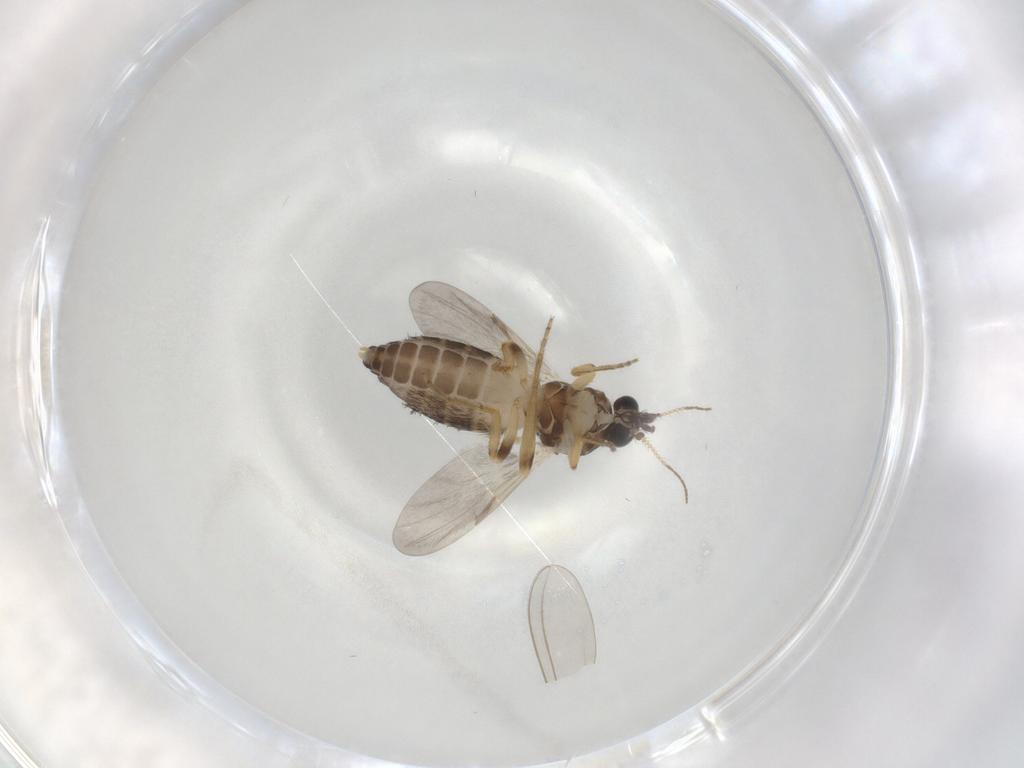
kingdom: Animalia
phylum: Arthropoda
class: Insecta
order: Diptera
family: Ceratopogonidae
